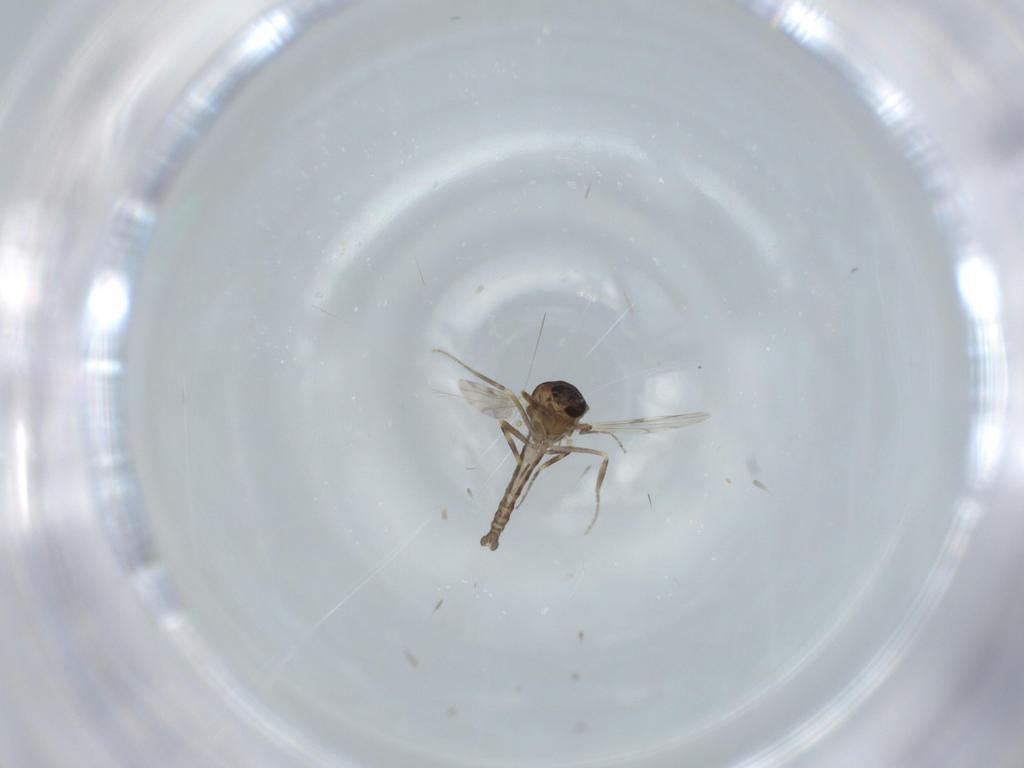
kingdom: Animalia
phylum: Arthropoda
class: Insecta
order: Diptera
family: Ceratopogonidae
